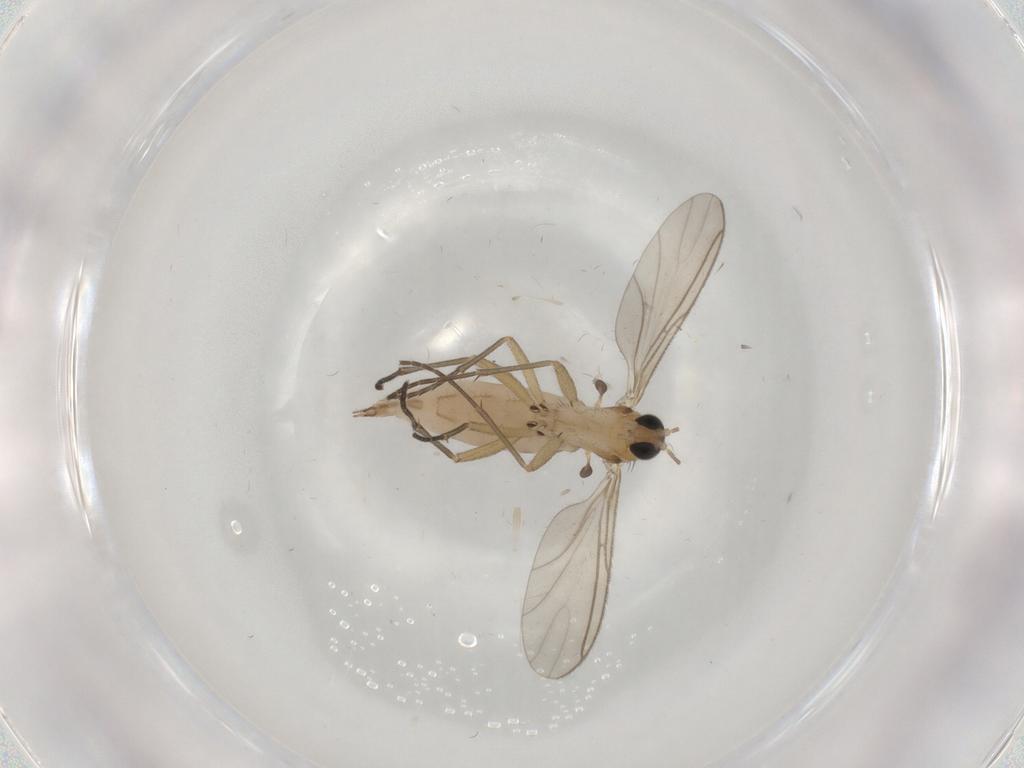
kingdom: Animalia
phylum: Arthropoda
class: Insecta
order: Diptera
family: Sciaridae
